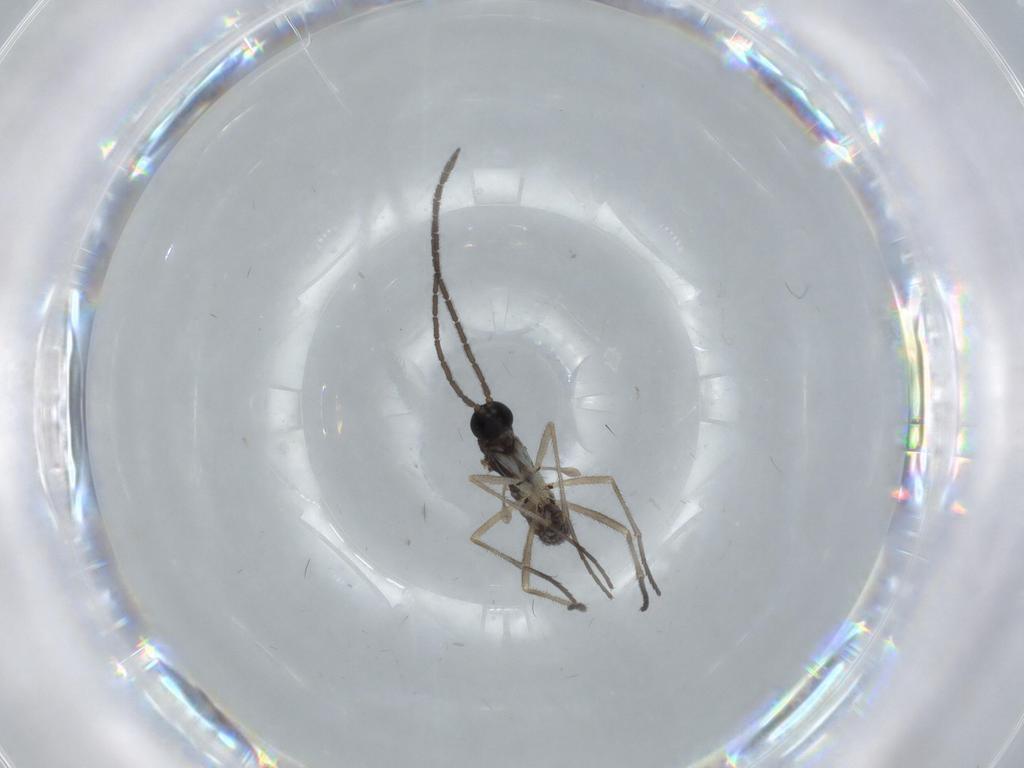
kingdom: Animalia
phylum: Arthropoda
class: Insecta
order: Diptera
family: Sciaridae
